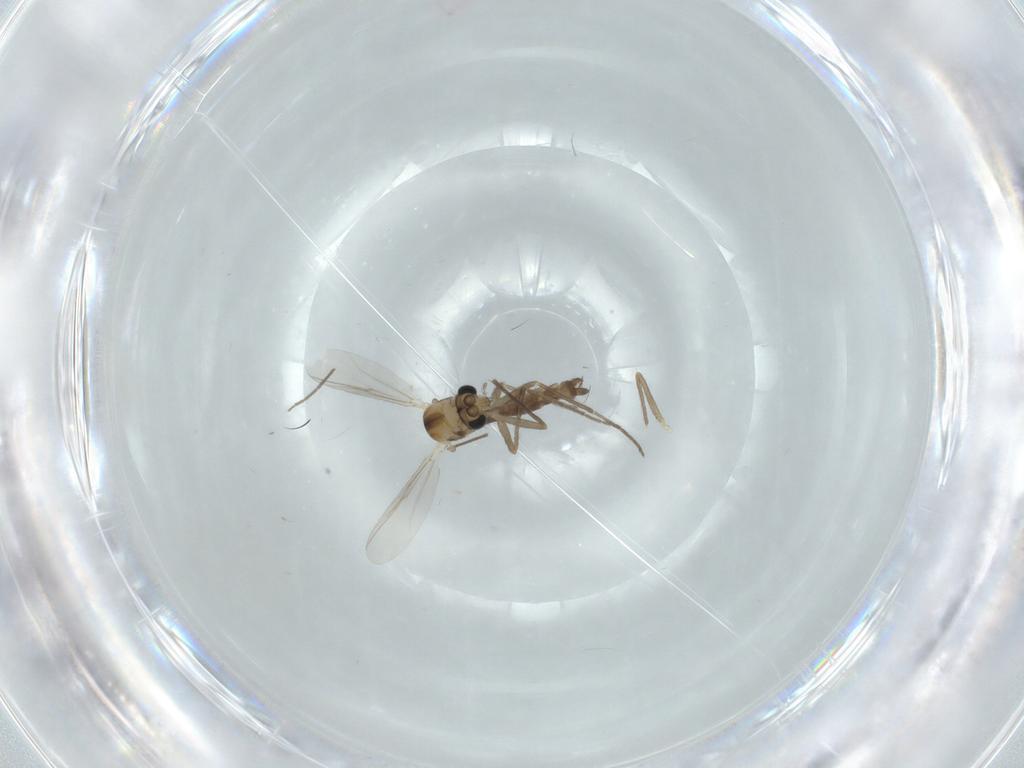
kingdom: Animalia
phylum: Arthropoda
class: Insecta
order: Diptera
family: Chironomidae
